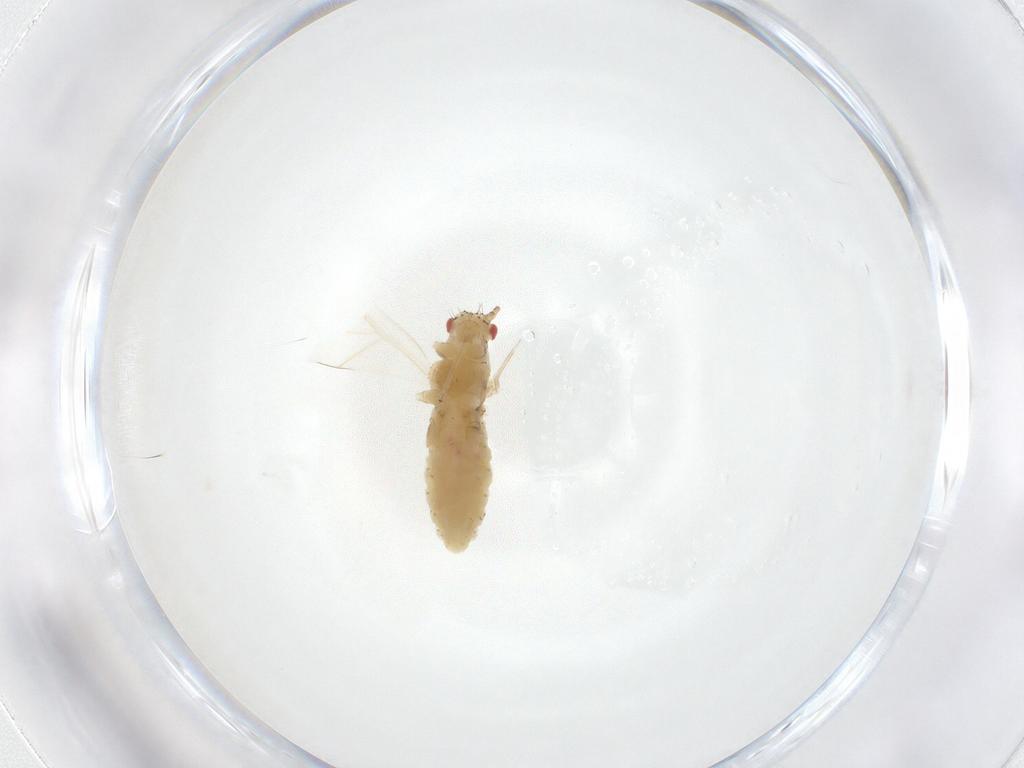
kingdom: Animalia
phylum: Arthropoda
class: Insecta
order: Hemiptera
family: Aphididae
